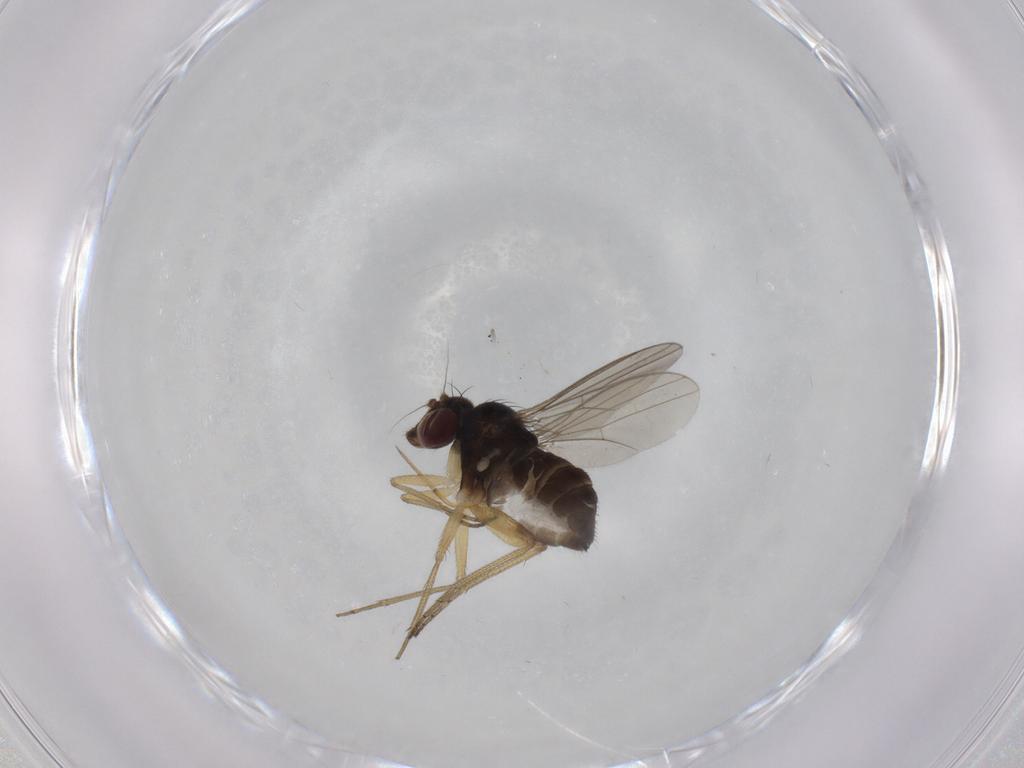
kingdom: Animalia
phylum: Arthropoda
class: Insecta
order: Diptera
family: Dolichopodidae
